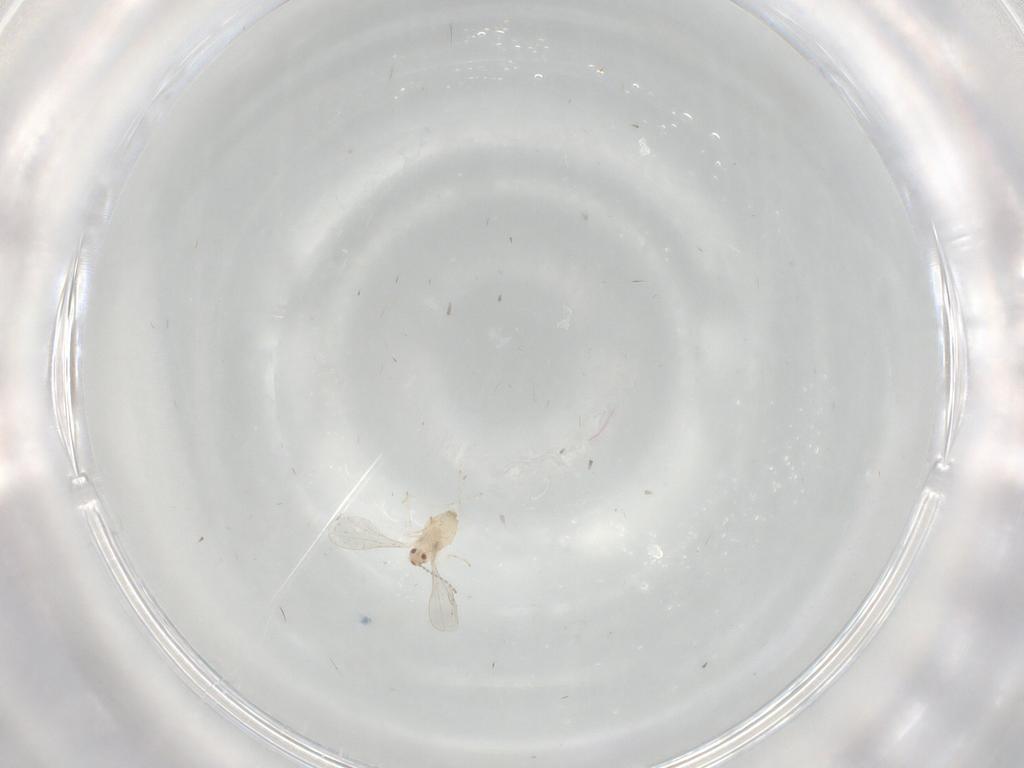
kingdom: Animalia
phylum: Arthropoda
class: Insecta
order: Diptera
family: Cecidomyiidae
